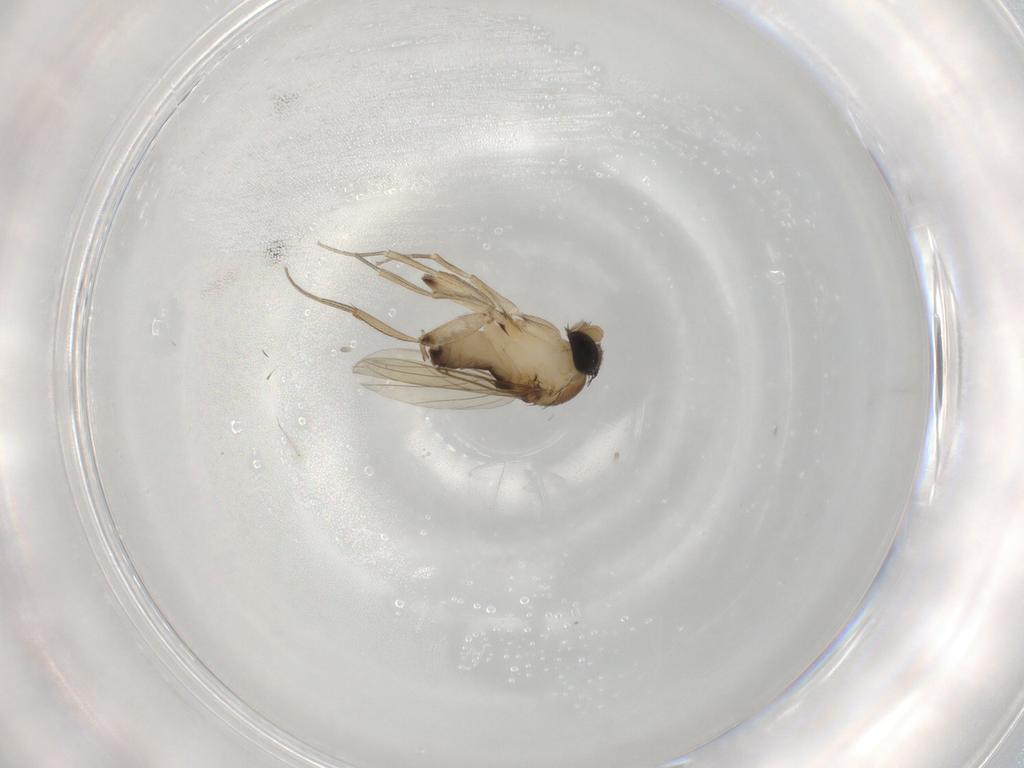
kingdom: Animalia
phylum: Arthropoda
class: Insecta
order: Diptera
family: Phoridae
